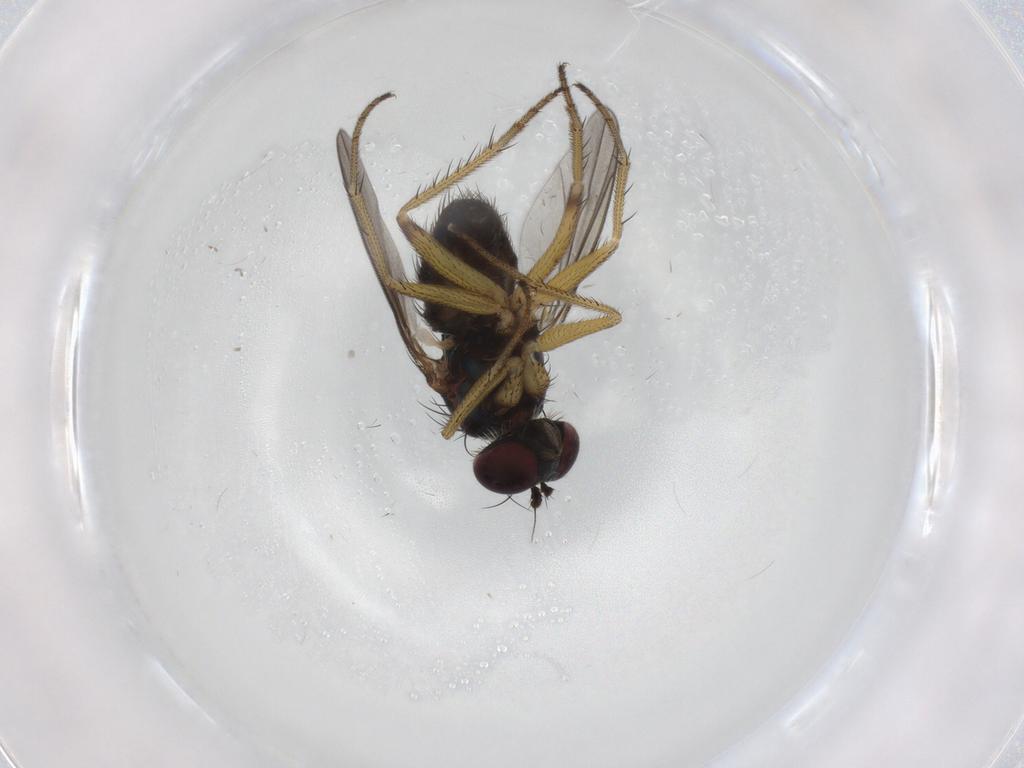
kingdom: Animalia
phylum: Arthropoda
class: Insecta
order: Diptera
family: Dolichopodidae
